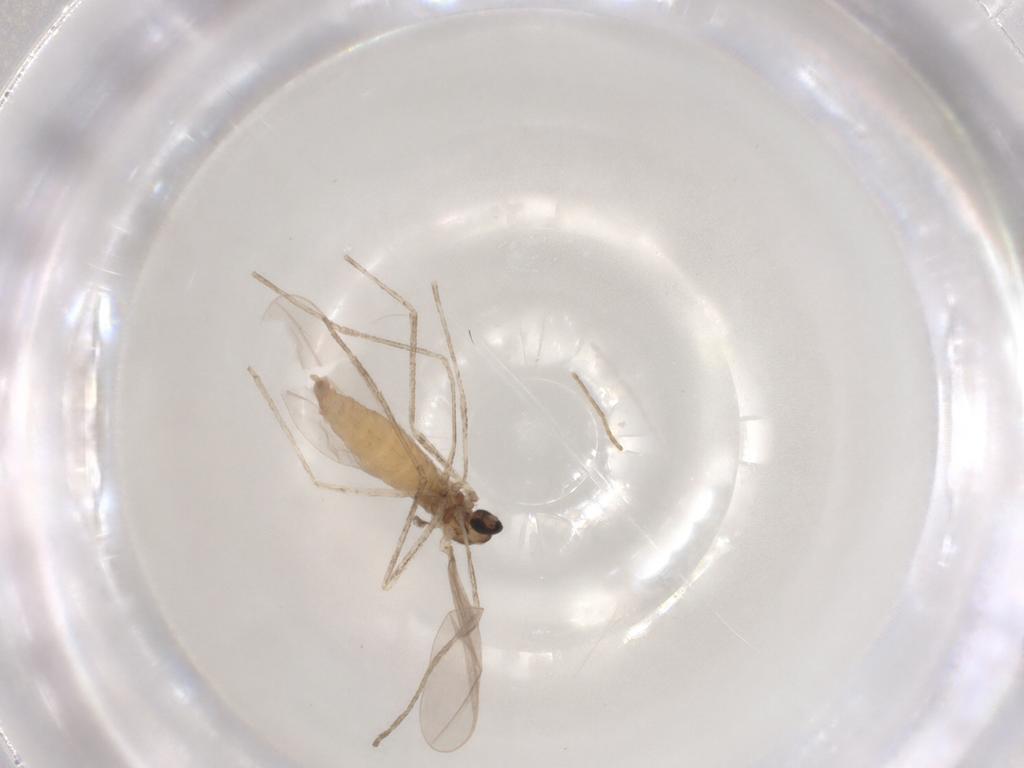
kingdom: Animalia
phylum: Arthropoda
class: Insecta
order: Diptera
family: Cecidomyiidae
